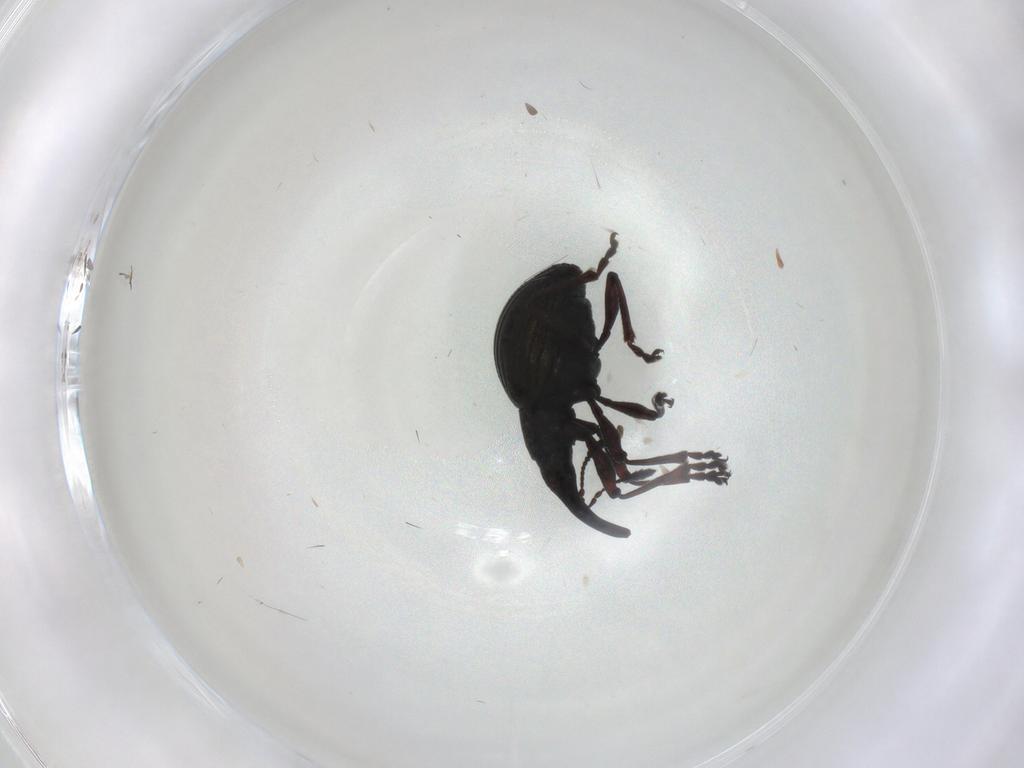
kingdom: Animalia
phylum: Arthropoda
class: Insecta
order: Coleoptera
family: Brentidae
